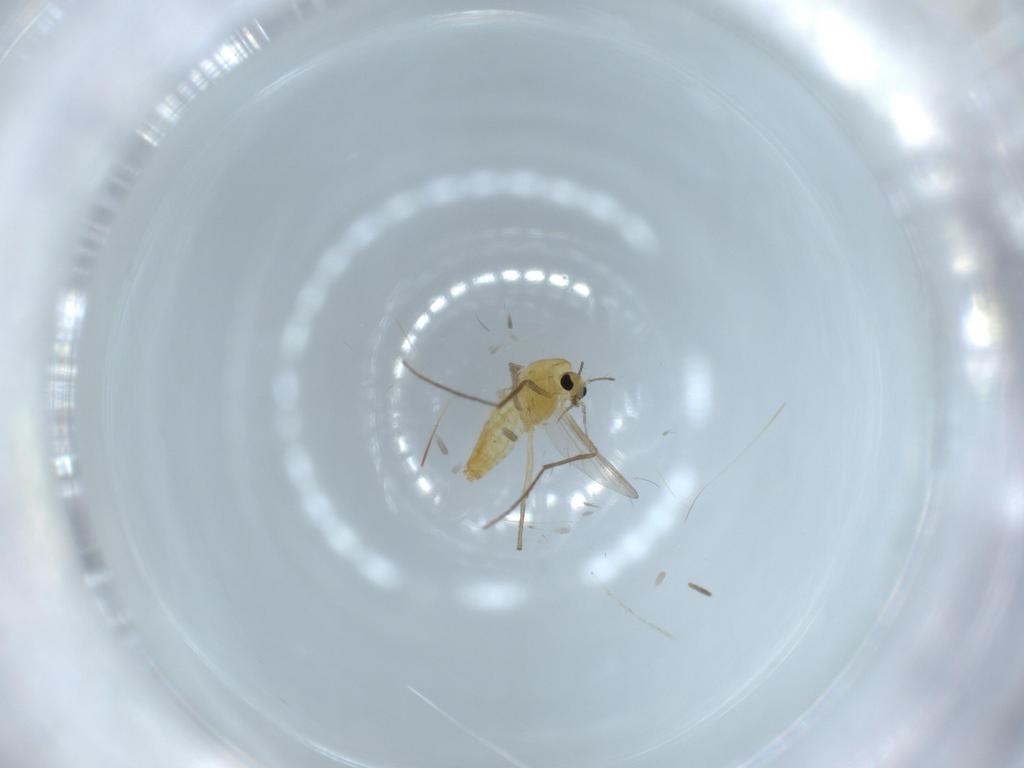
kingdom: Animalia
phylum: Arthropoda
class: Insecta
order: Diptera
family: Chironomidae
